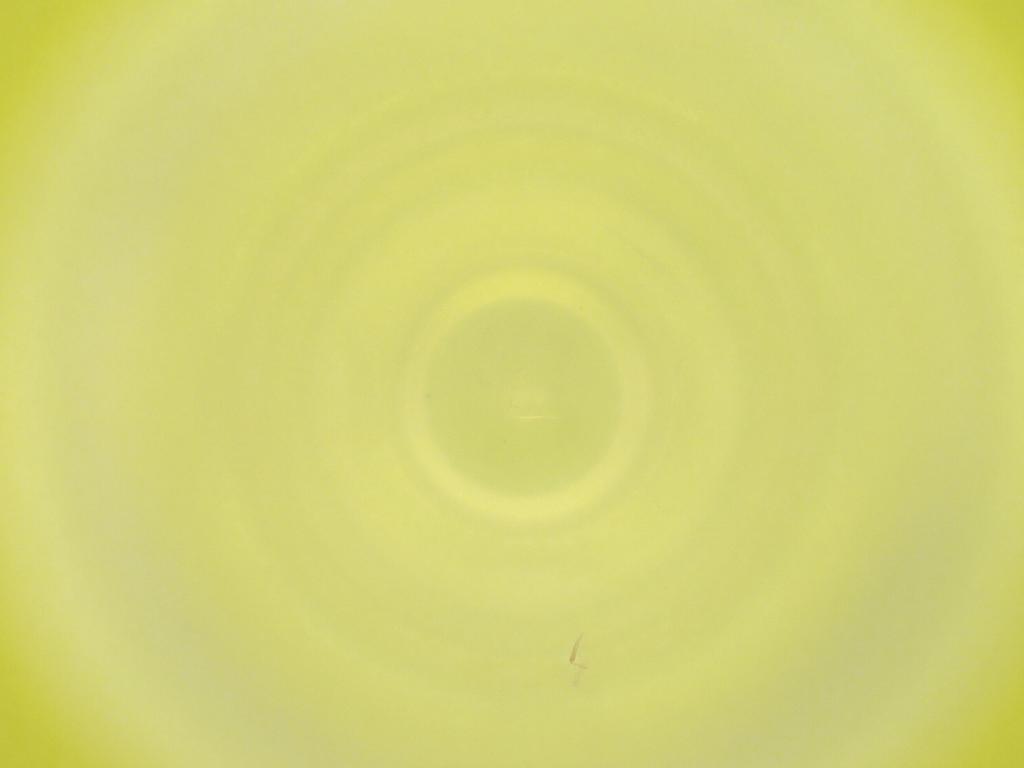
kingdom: Animalia
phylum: Arthropoda
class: Insecta
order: Diptera
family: Cecidomyiidae
